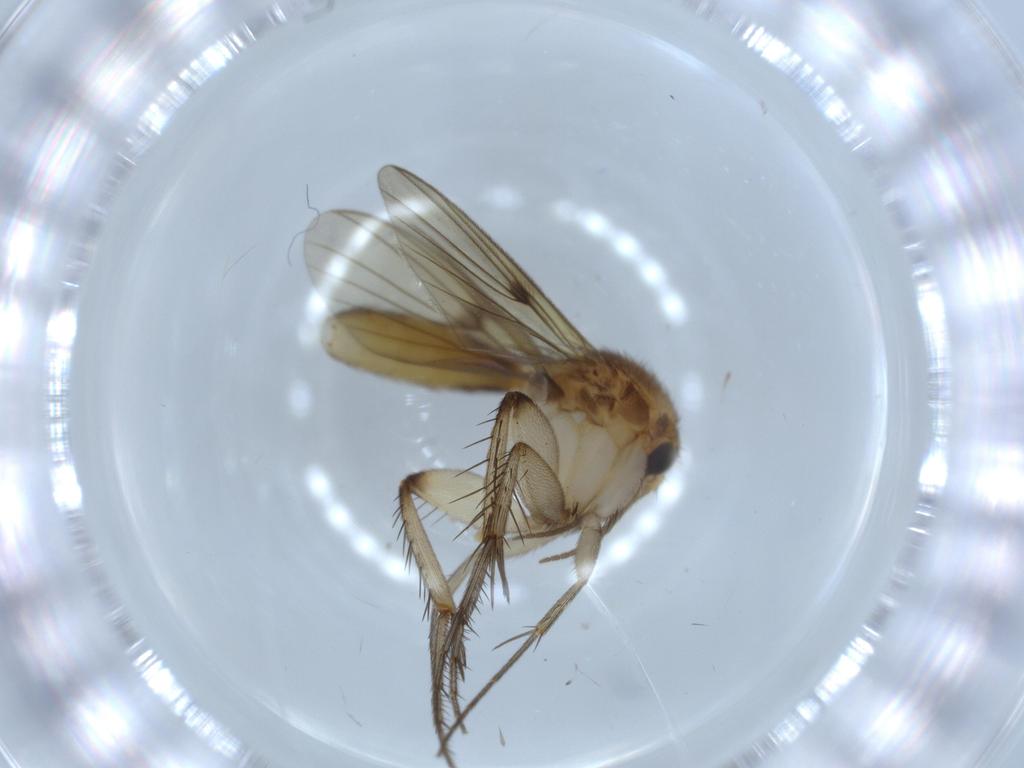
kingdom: Animalia
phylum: Arthropoda
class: Insecta
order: Diptera
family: Mycetophilidae
